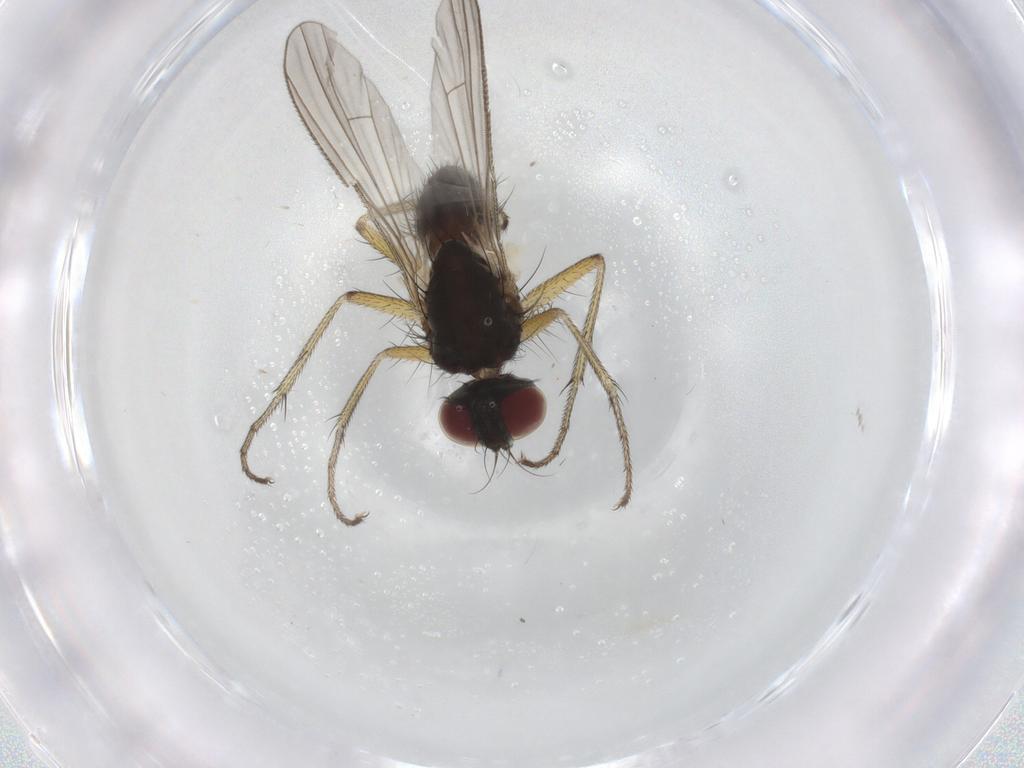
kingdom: Animalia
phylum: Arthropoda
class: Insecta
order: Diptera
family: Muscidae
